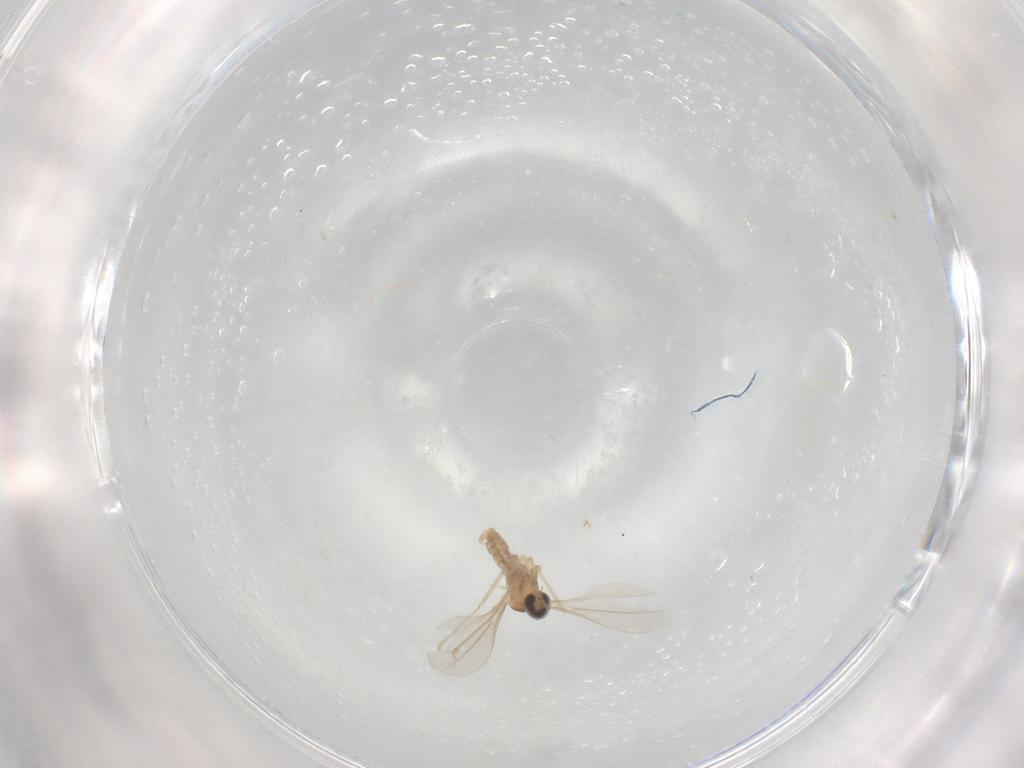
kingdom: Animalia
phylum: Arthropoda
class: Insecta
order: Diptera
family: Cecidomyiidae
